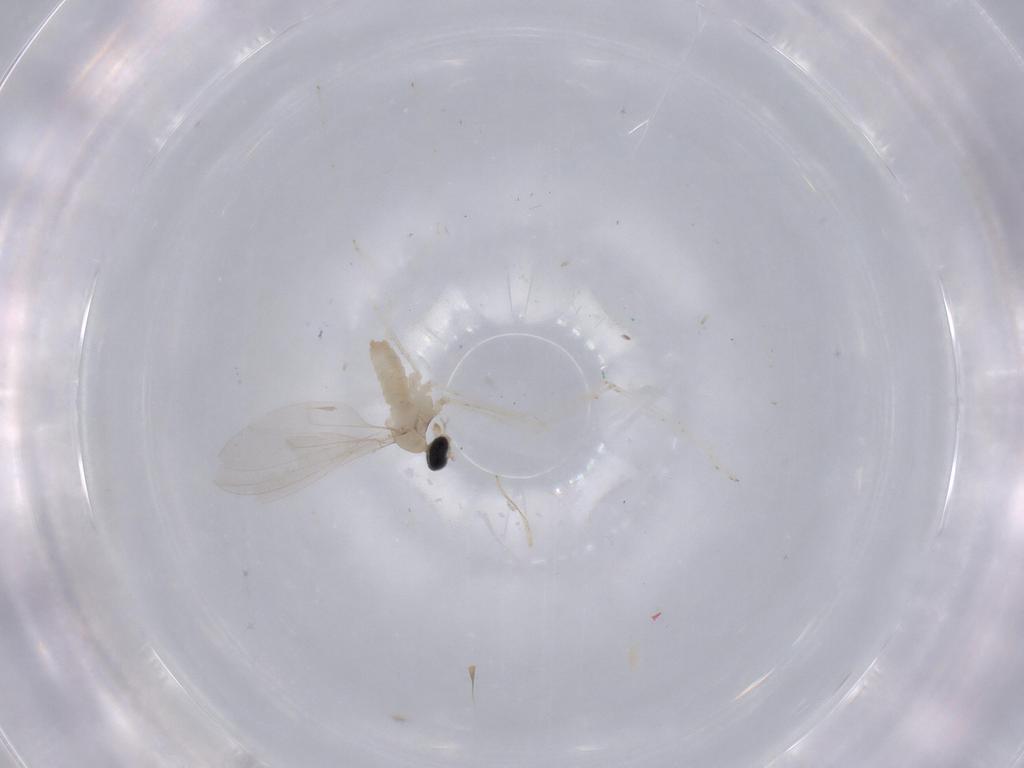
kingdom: Animalia
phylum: Arthropoda
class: Insecta
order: Diptera
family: Cecidomyiidae
